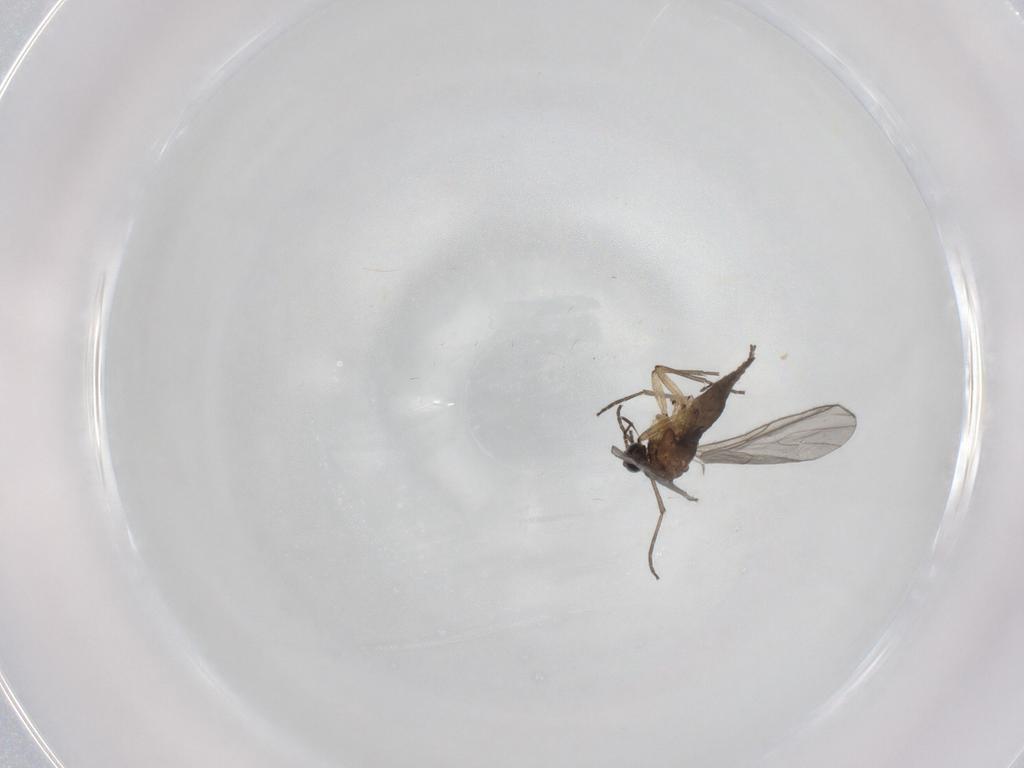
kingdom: Animalia
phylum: Arthropoda
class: Insecta
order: Diptera
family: Sciaridae
